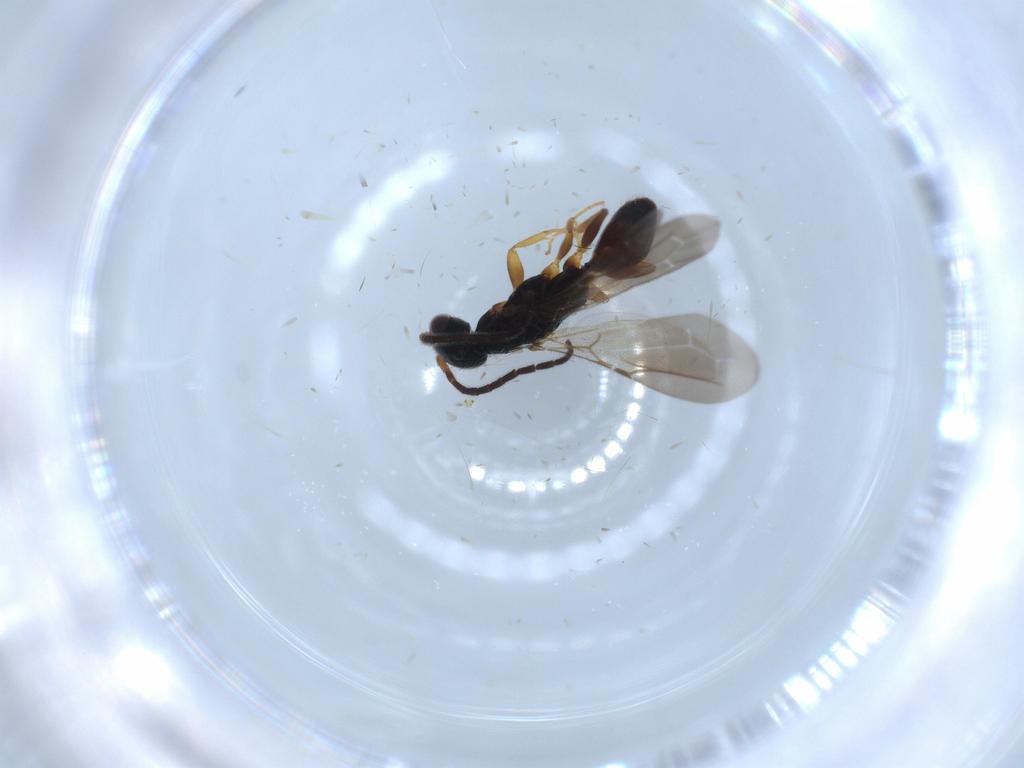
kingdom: Animalia
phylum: Arthropoda
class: Insecta
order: Hymenoptera
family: Bethylidae
